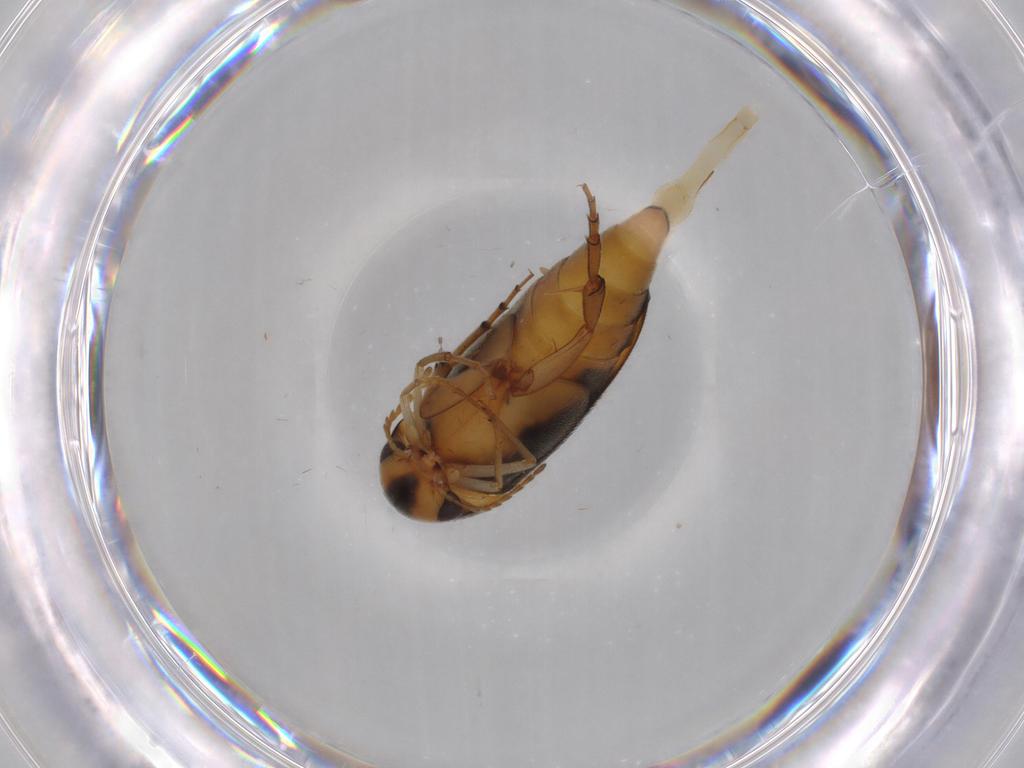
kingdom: Animalia
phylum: Arthropoda
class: Insecta
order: Coleoptera
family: Mordellidae
